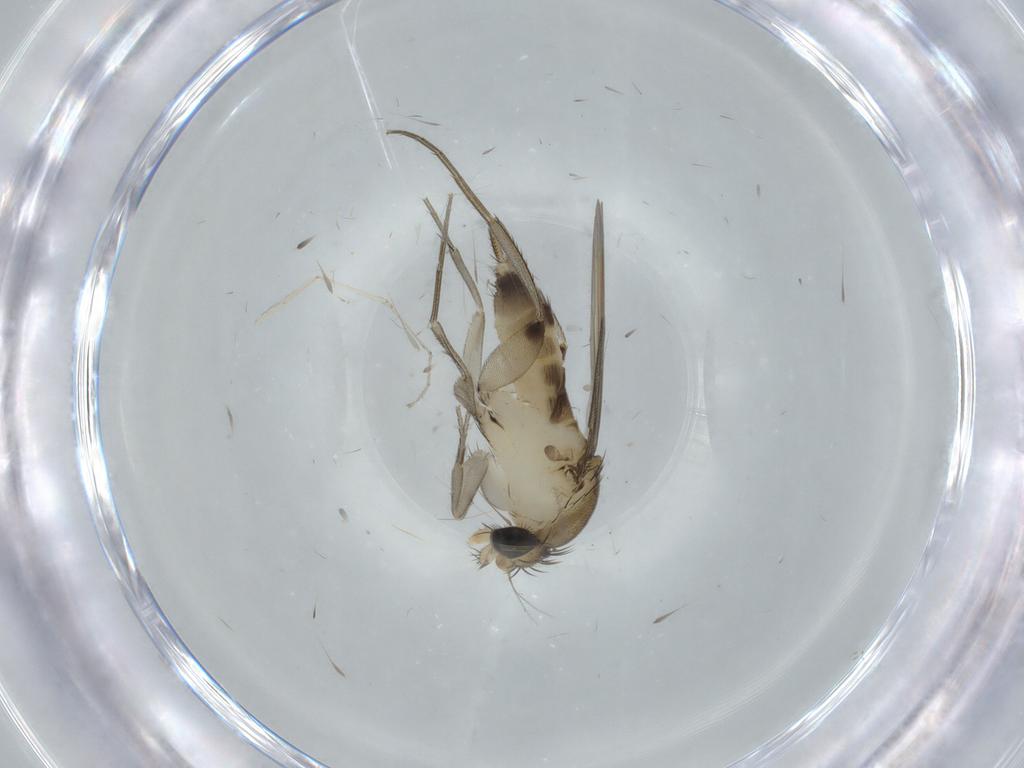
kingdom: Animalia
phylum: Arthropoda
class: Insecta
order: Diptera
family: Phoridae
